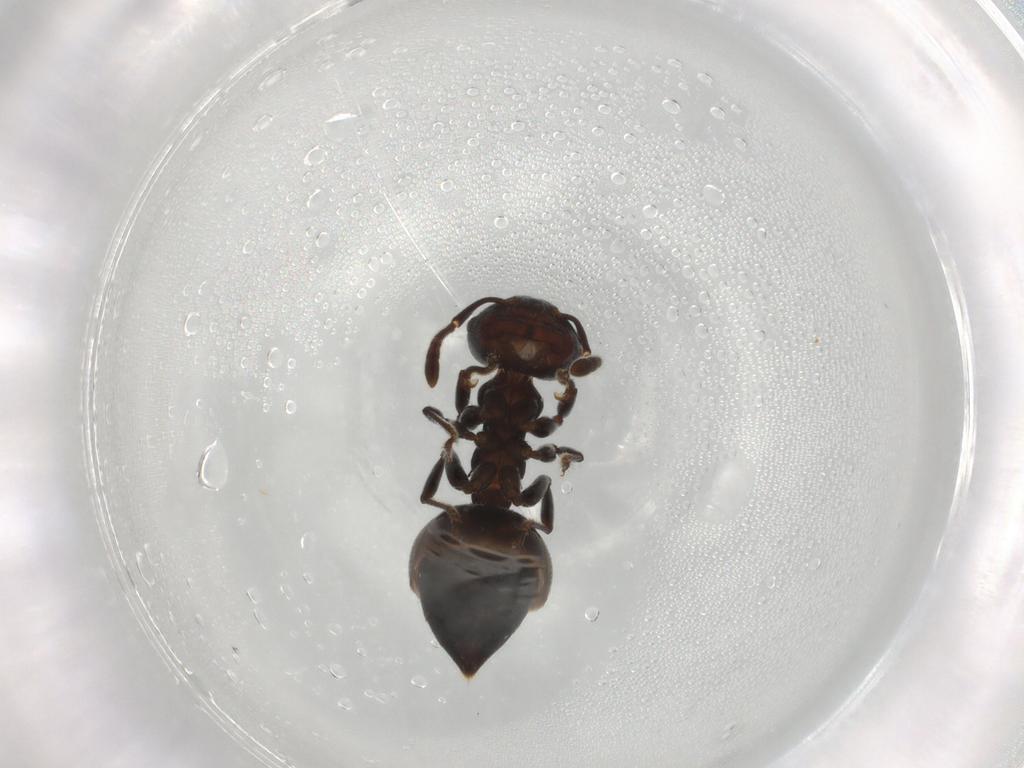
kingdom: Animalia
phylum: Arthropoda
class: Insecta
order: Hymenoptera
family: Formicidae
